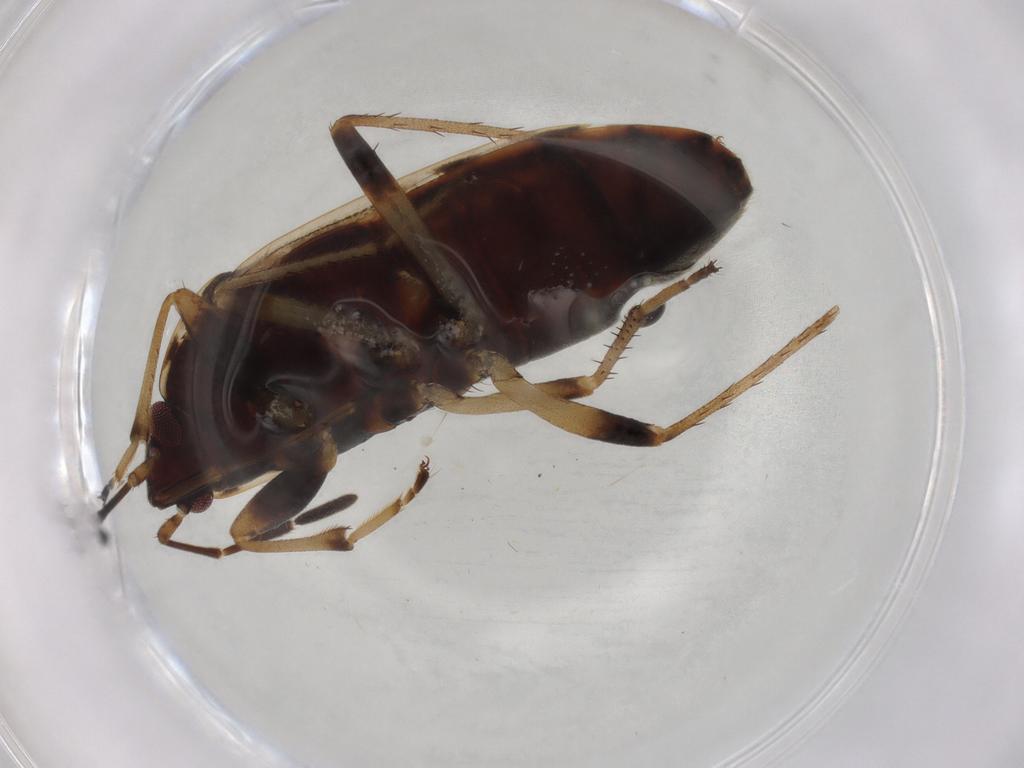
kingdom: Animalia
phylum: Arthropoda
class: Insecta
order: Hemiptera
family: Rhyparochromidae
